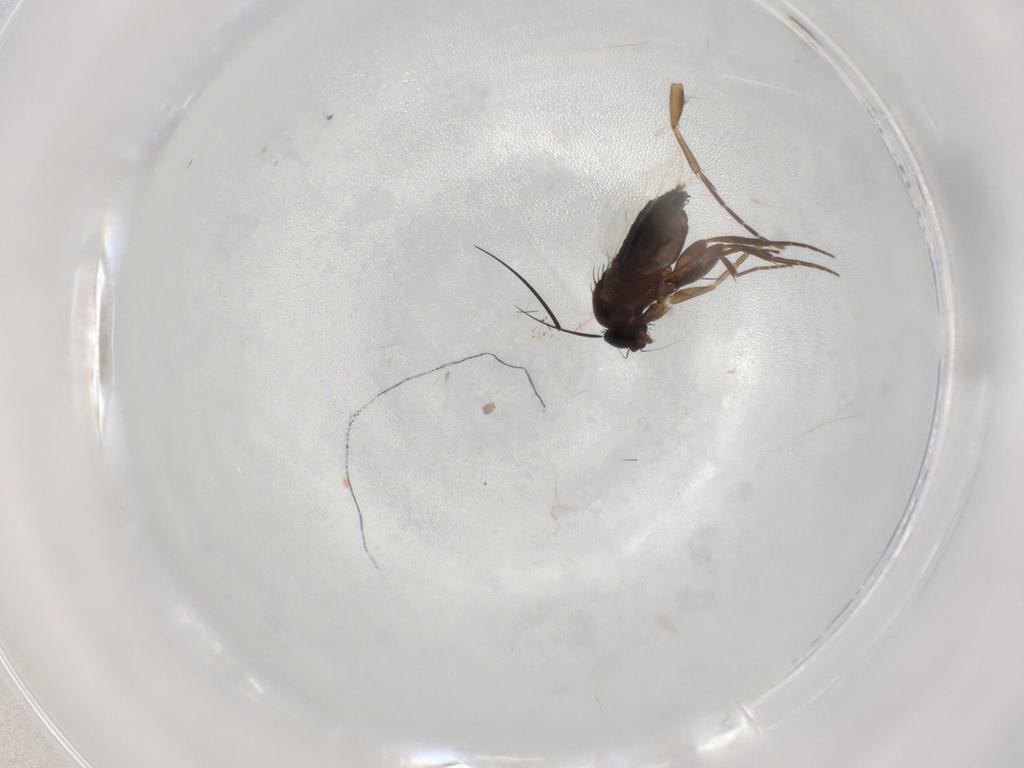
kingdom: Animalia
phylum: Arthropoda
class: Insecta
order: Diptera
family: Phoridae
